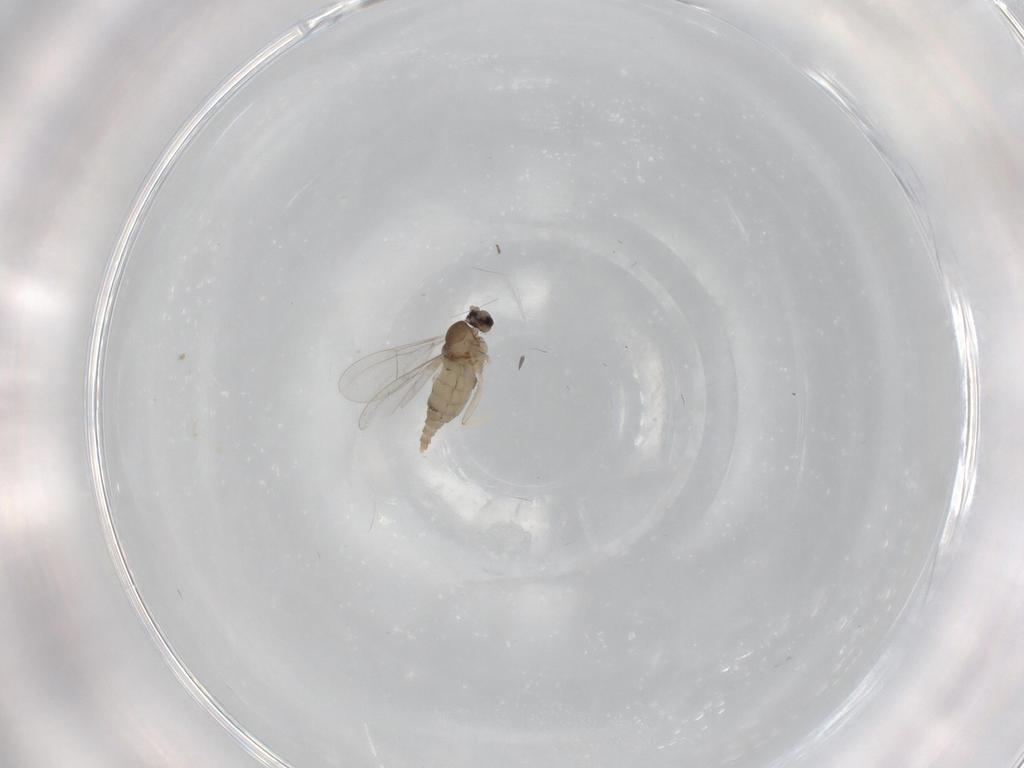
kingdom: Animalia
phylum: Arthropoda
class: Insecta
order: Diptera
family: Cecidomyiidae
